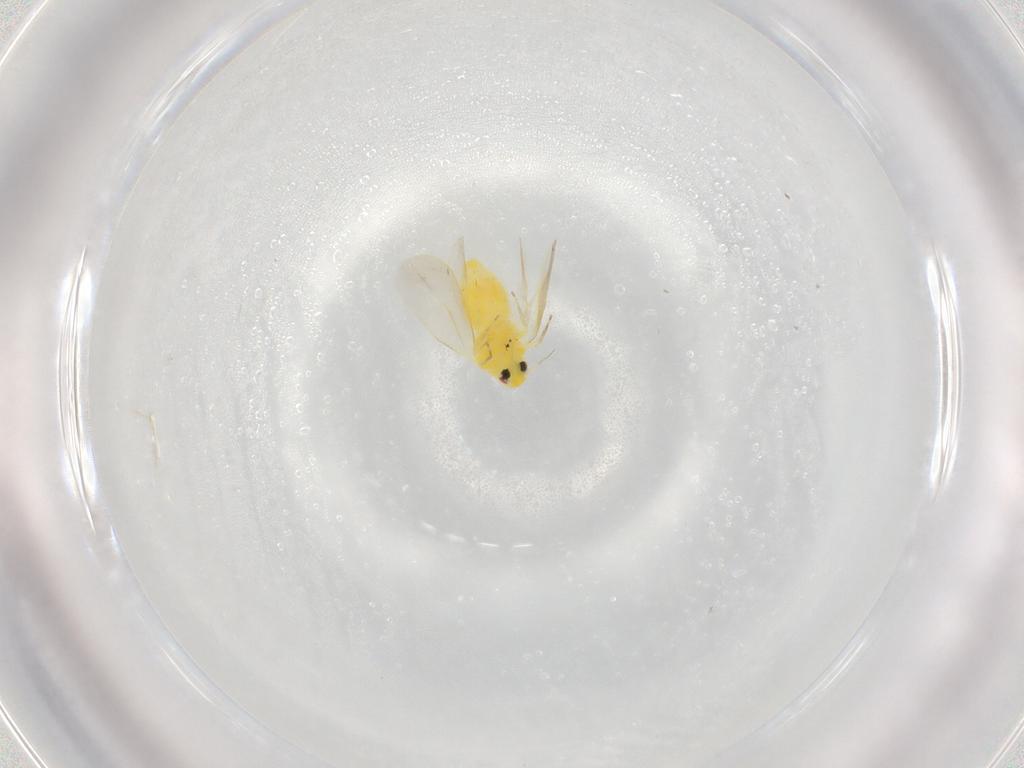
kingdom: Animalia
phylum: Arthropoda
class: Insecta
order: Hemiptera
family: Aleyrodidae
